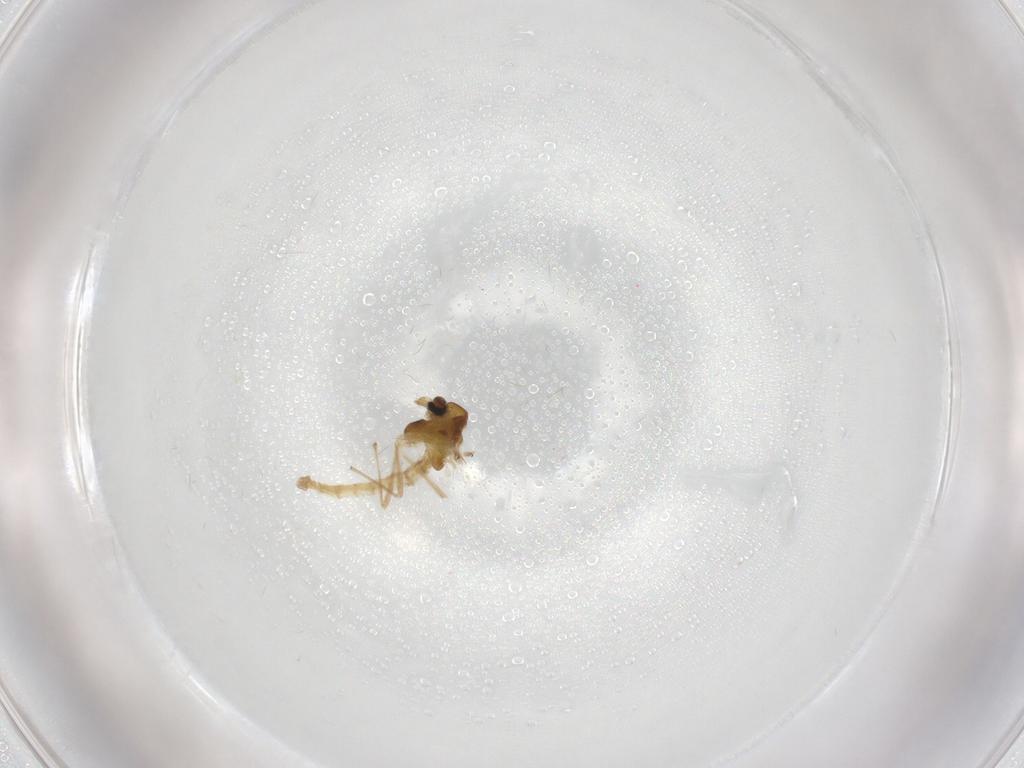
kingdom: Animalia
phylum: Arthropoda
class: Insecta
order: Diptera
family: Chironomidae
